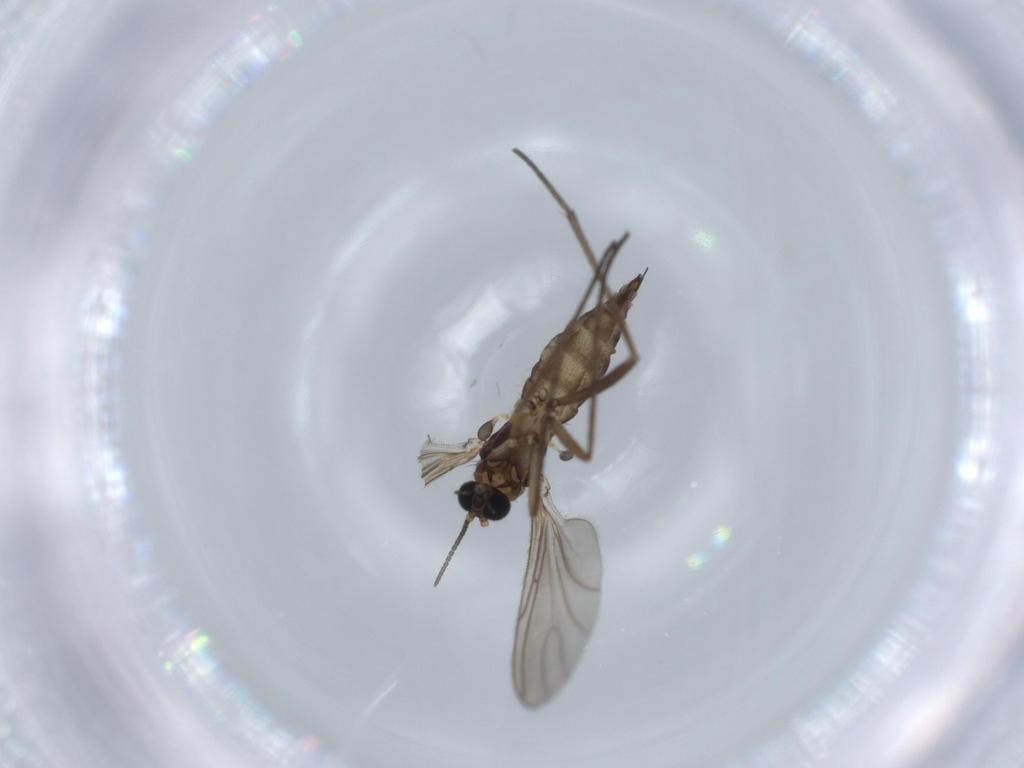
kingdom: Animalia
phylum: Arthropoda
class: Insecta
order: Diptera
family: Sciaridae
